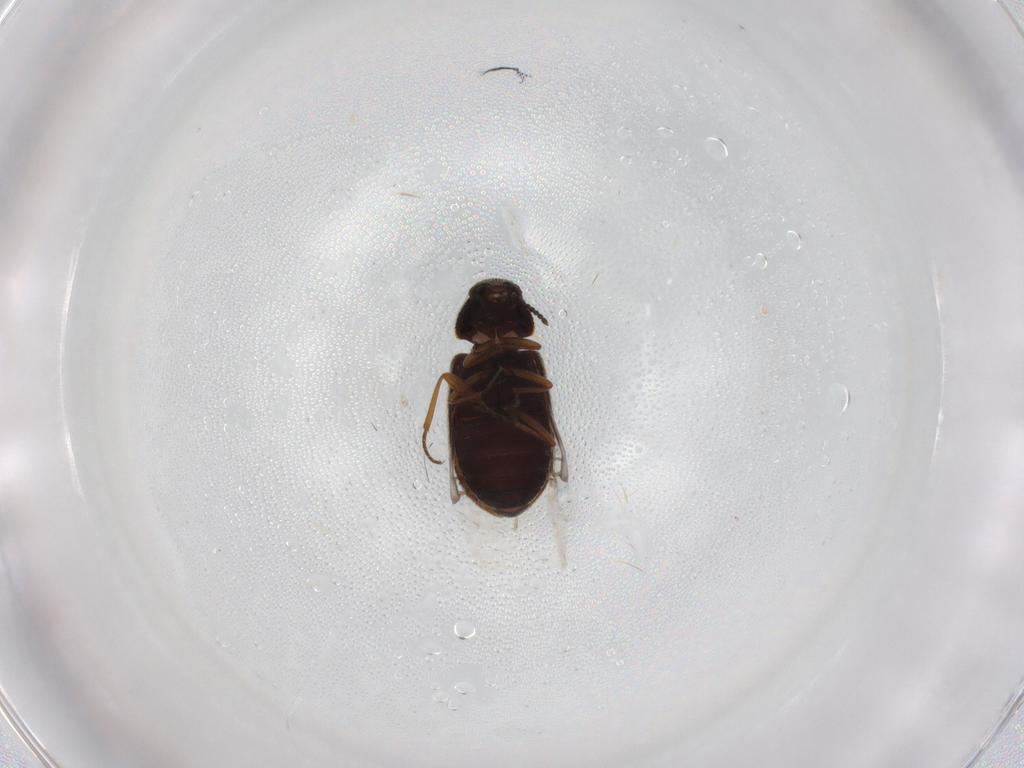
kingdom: Animalia
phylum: Arthropoda
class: Insecta
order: Coleoptera
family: Rhadalidae
